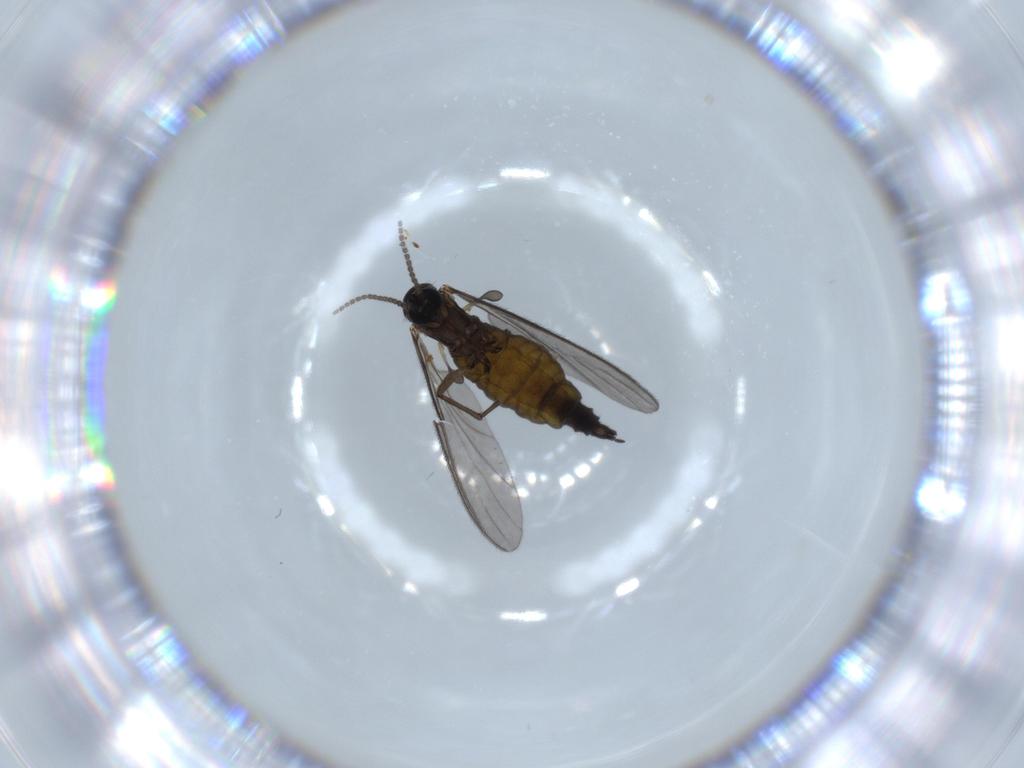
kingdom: Animalia
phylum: Arthropoda
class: Insecta
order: Diptera
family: Sciaridae
